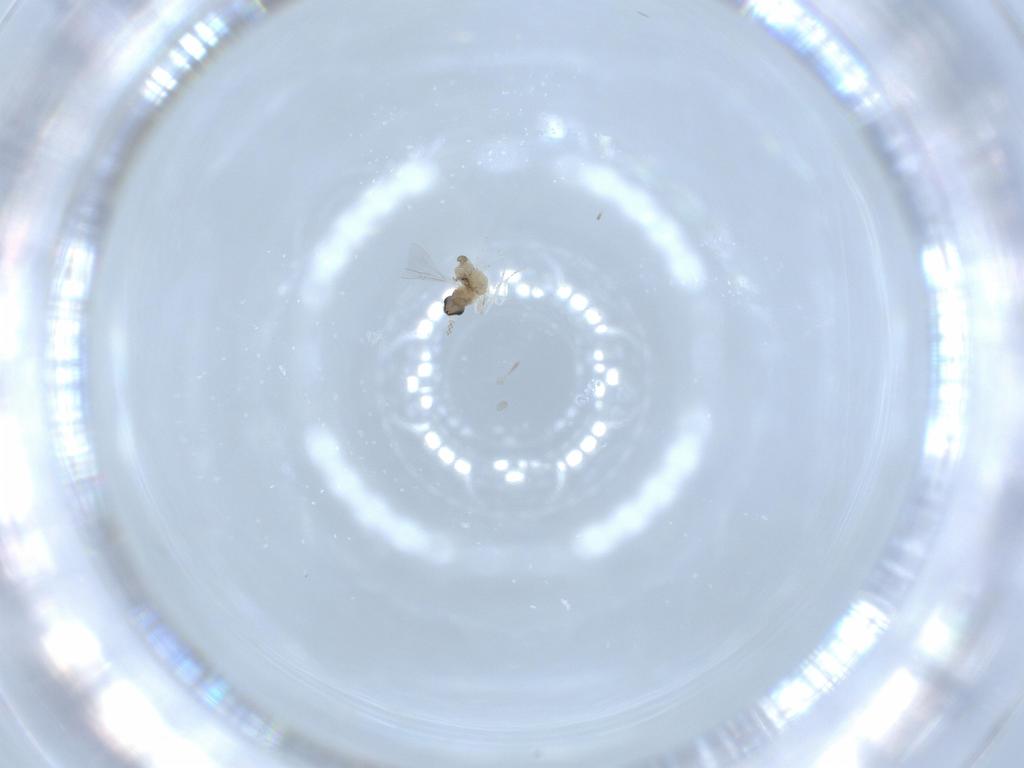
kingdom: Animalia
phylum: Arthropoda
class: Insecta
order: Diptera
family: Cecidomyiidae
